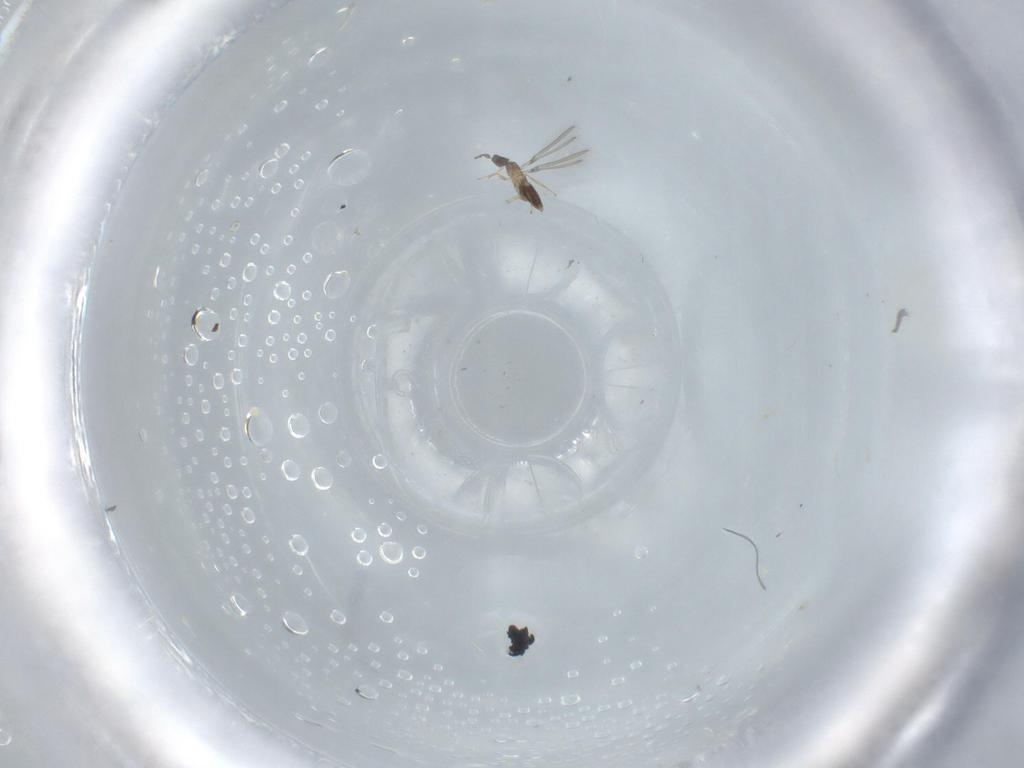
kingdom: Animalia
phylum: Arthropoda
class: Insecta
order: Hymenoptera
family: Mymaridae
